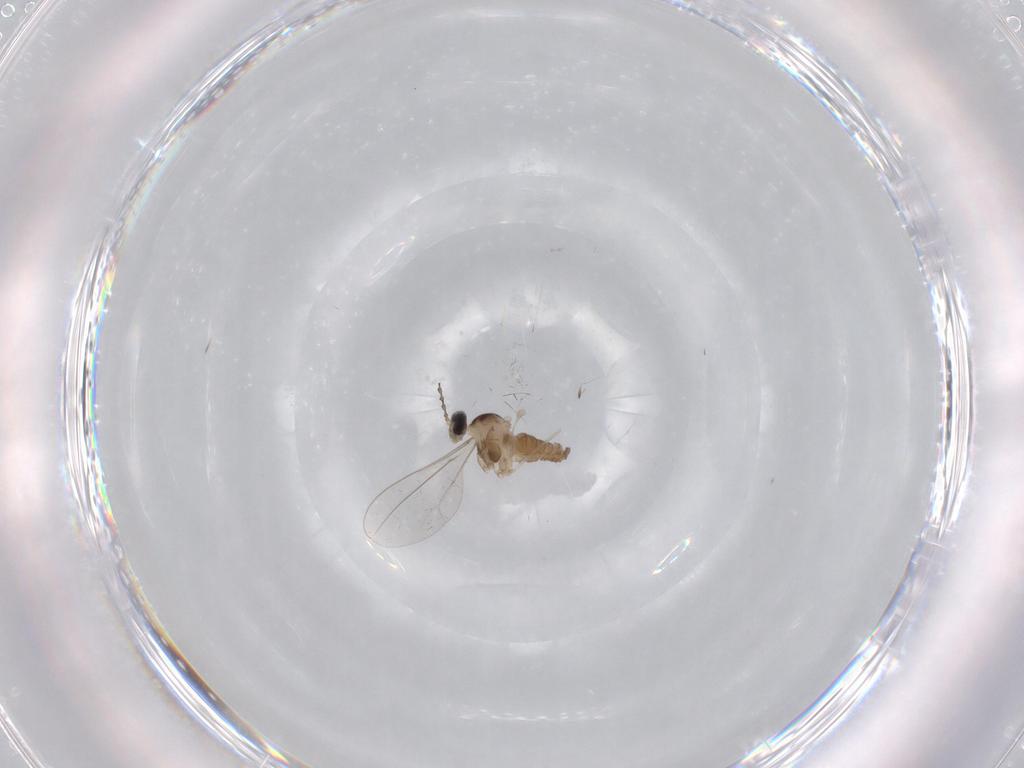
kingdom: Animalia
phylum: Arthropoda
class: Insecta
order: Diptera
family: Cecidomyiidae
